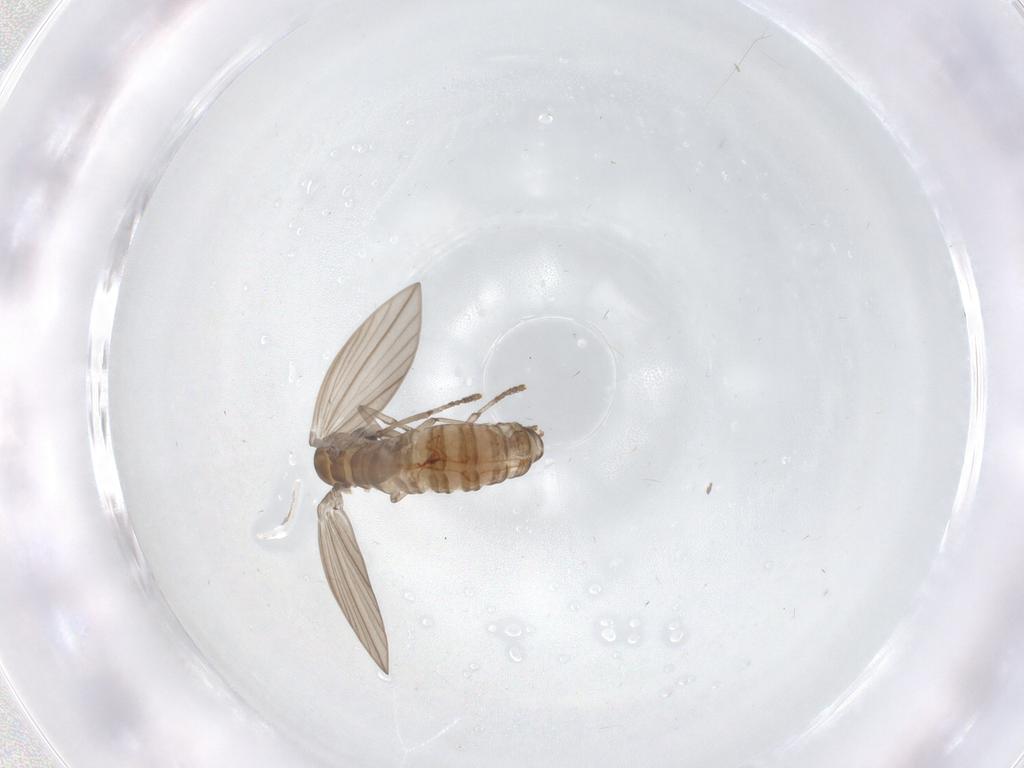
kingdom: Animalia
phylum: Arthropoda
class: Insecta
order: Diptera
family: Psychodidae
